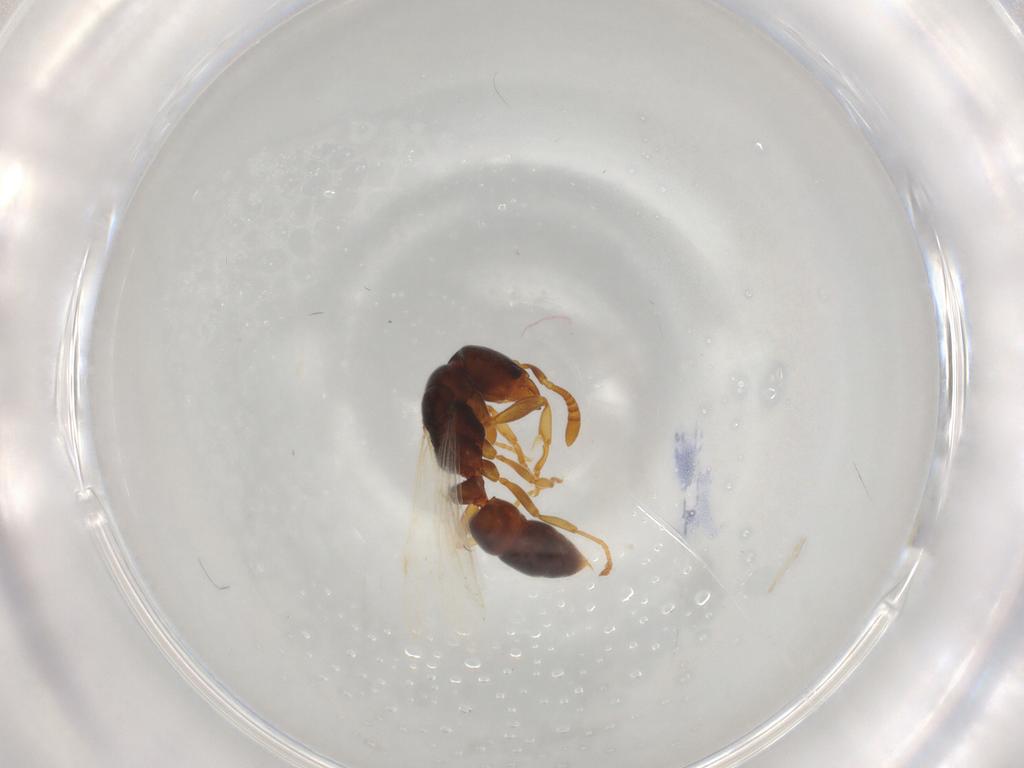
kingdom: Animalia
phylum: Arthropoda
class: Insecta
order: Hymenoptera
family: Formicidae
